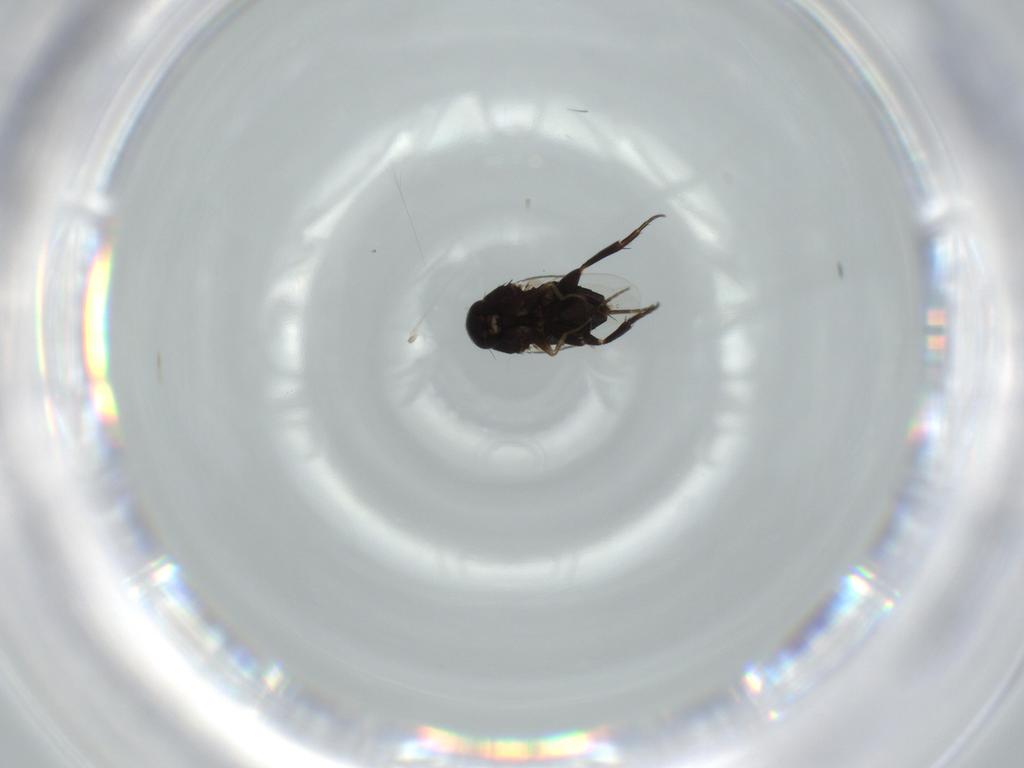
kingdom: Animalia
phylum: Arthropoda
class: Insecta
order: Diptera
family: Phoridae
